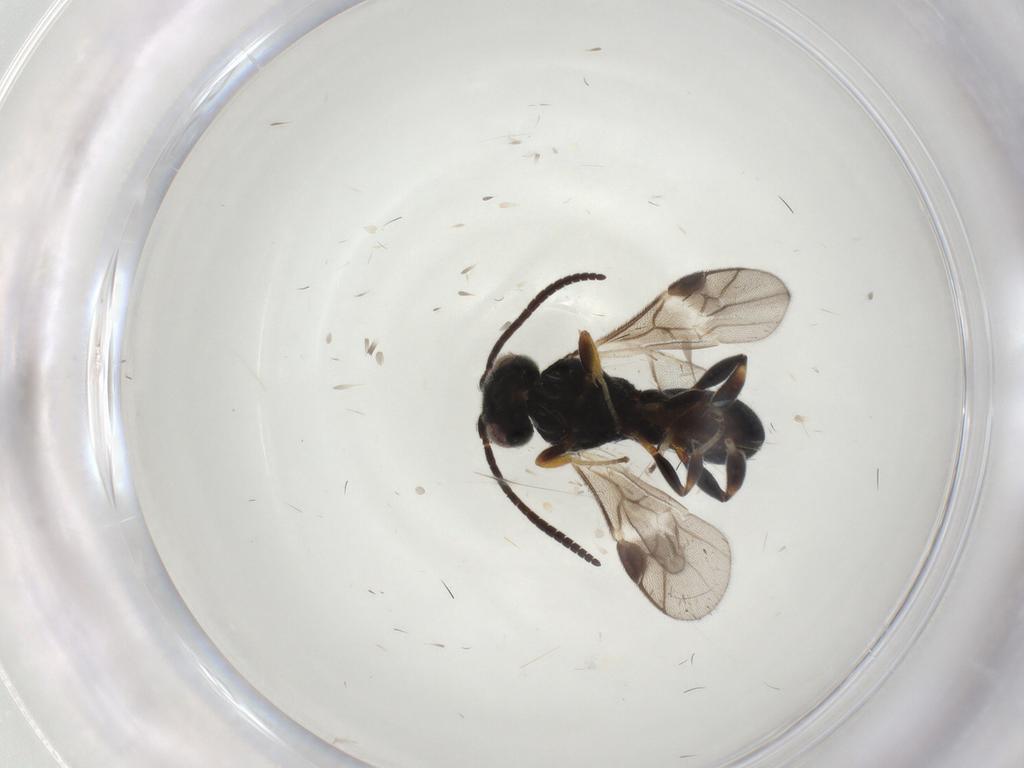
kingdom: Animalia
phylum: Arthropoda
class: Insecta
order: Hymenoptera
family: Braconidae
